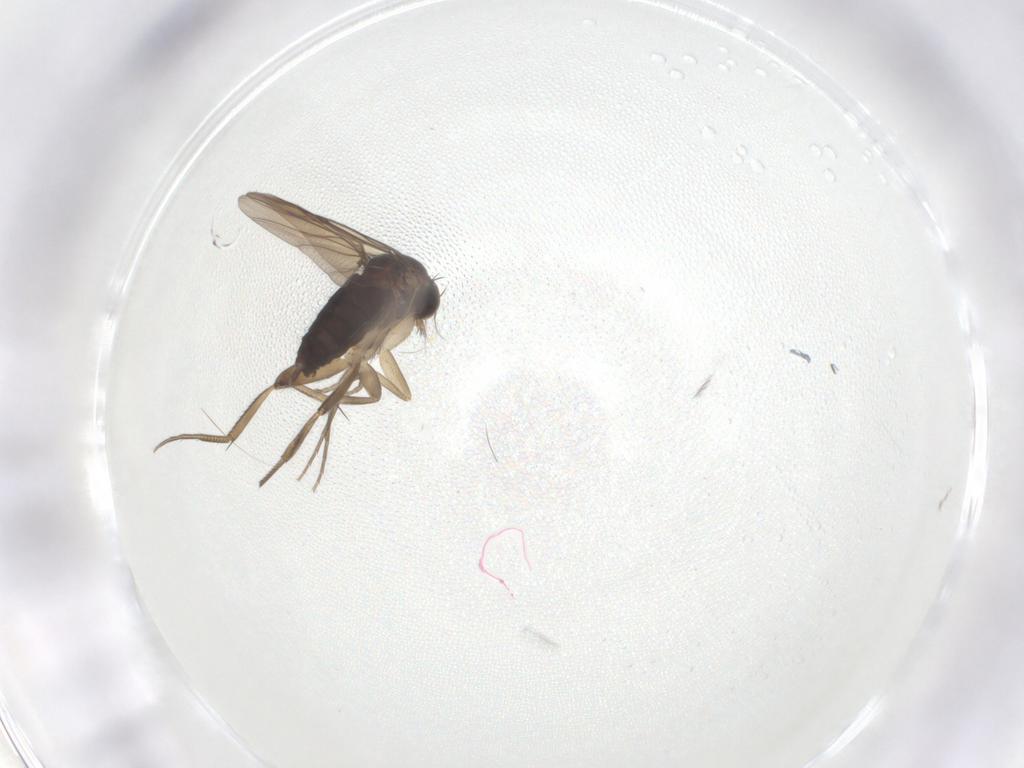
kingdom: Animalia
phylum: Arthropoda
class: Insecta
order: Diptera
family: Phoridae
